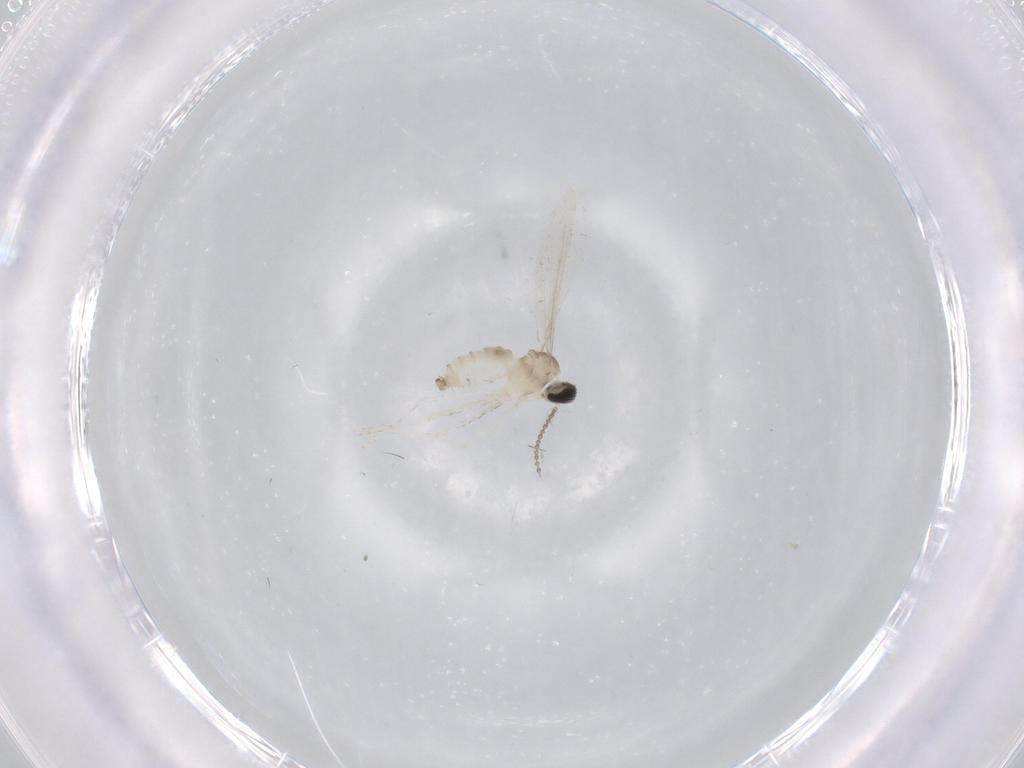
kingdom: Animalia
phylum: Arthropoda
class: Insecta
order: Diptera
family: Cecidomyiidae
